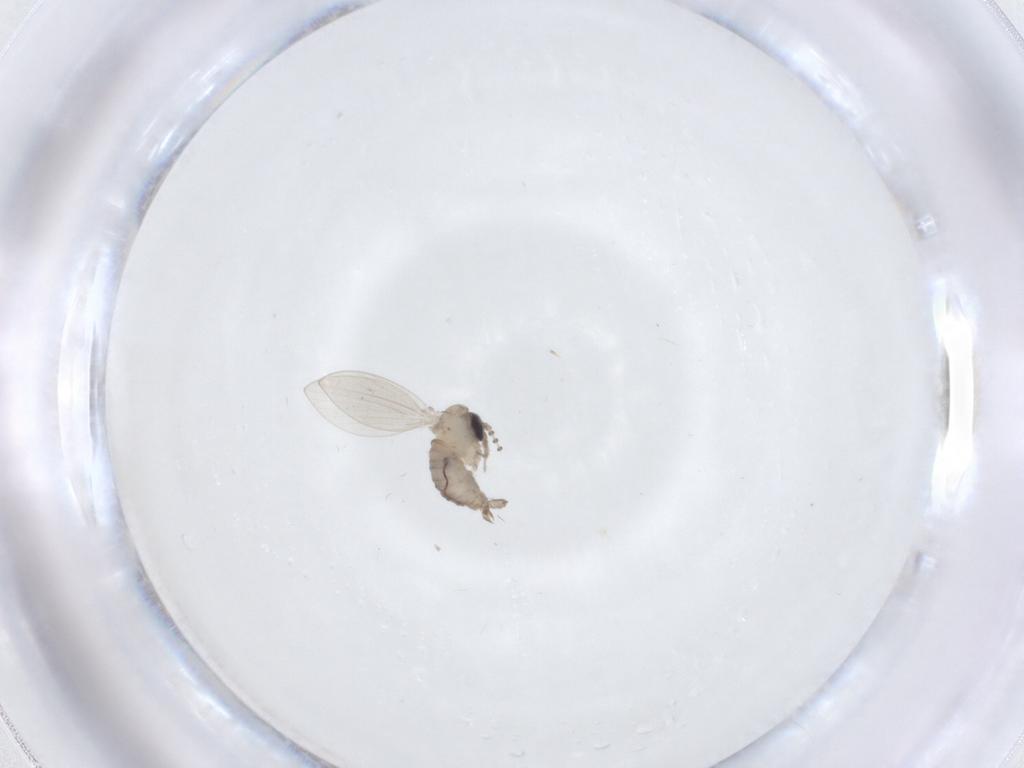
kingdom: Animalia
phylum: Arthropoda
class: Insecta
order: Diptera
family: Psychodidae
